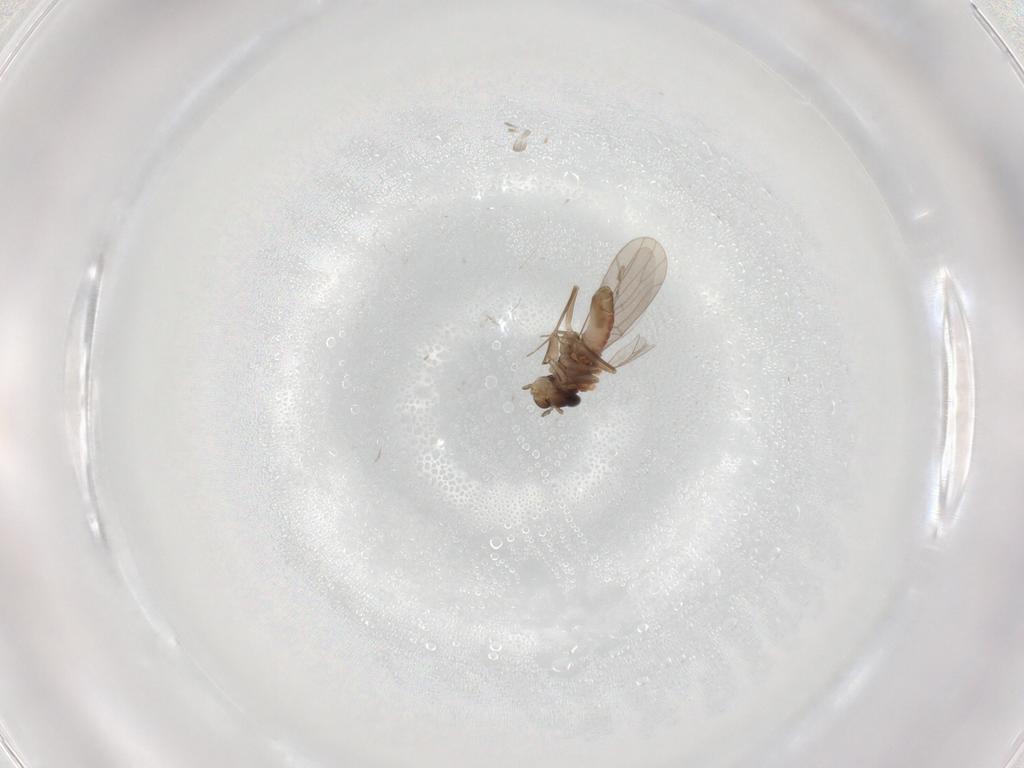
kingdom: Animalia
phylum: Arthropoda
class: Insecta
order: Psocodea
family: Lepidopsocidae
